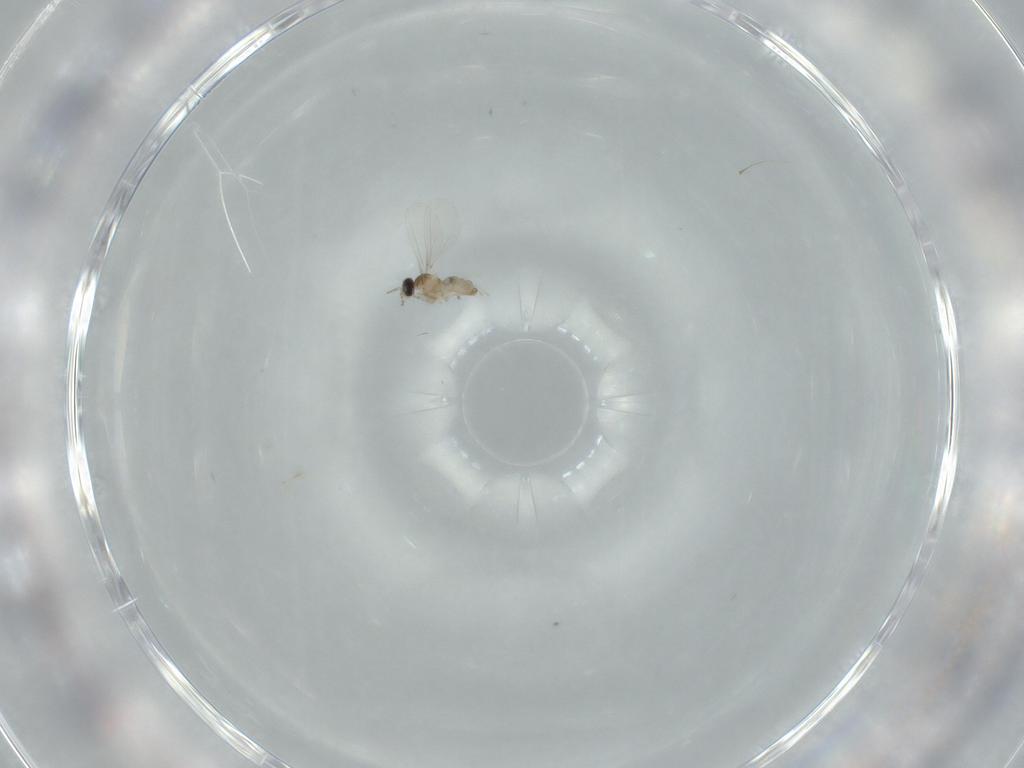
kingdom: Animalia
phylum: Arthropoda
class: Insecta
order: Diptera
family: Cecidomyiidae
